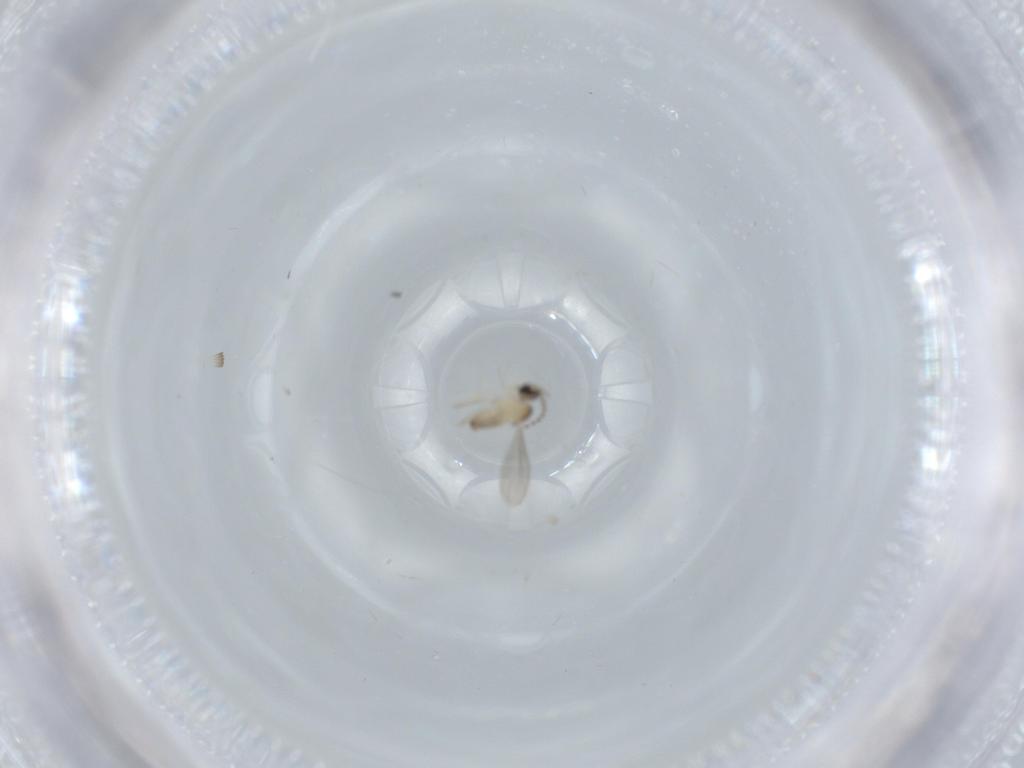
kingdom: Animalia
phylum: Arthropoda
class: Insecta
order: Diptera
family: Cecidomyiidae
